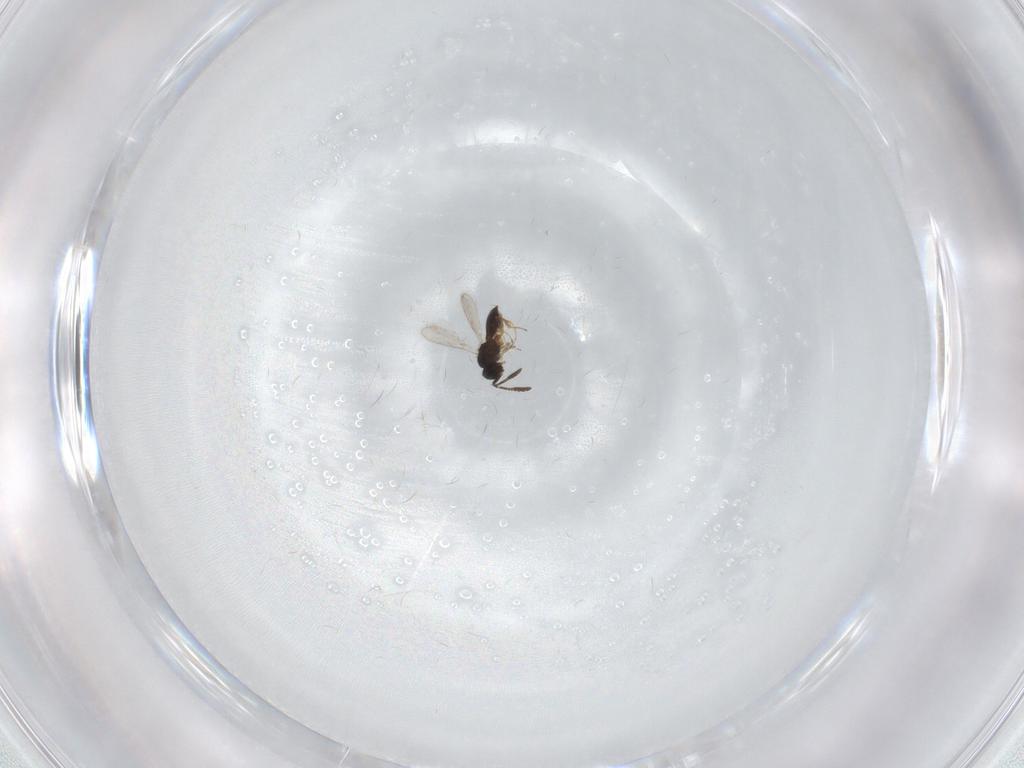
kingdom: Animalia
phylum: Arthropoda
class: Insecta
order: Hymenoptera
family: Scelionidae
